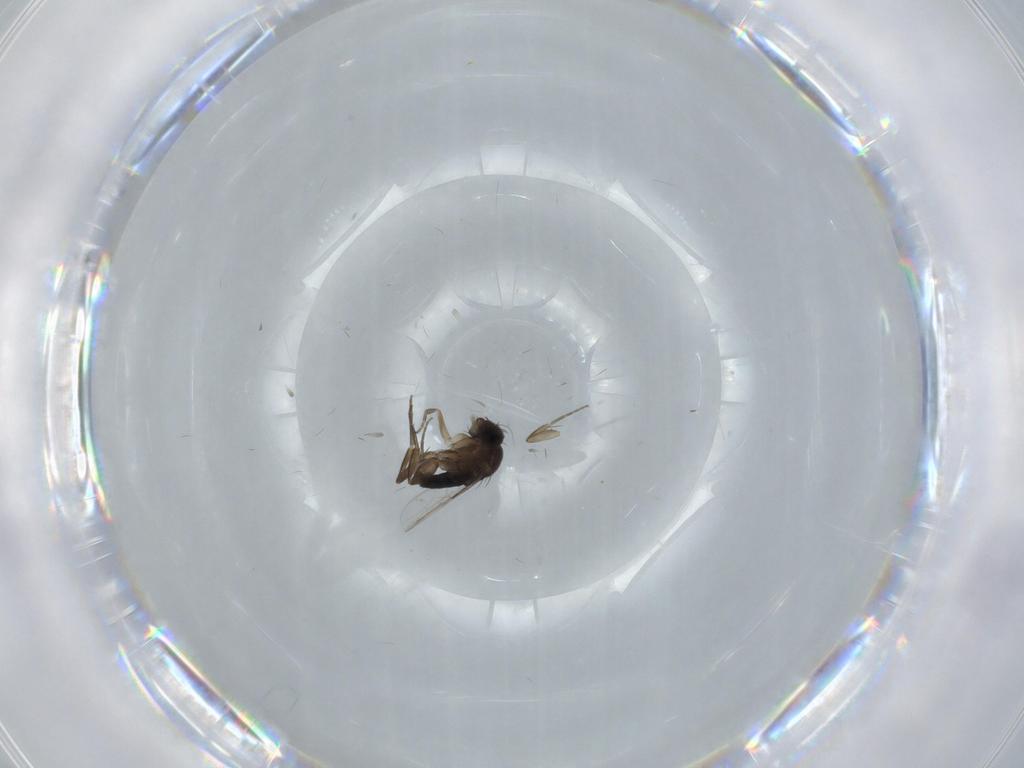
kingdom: Animalia
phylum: Arthropoda
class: Insecta
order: Diptera
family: Phoridae
